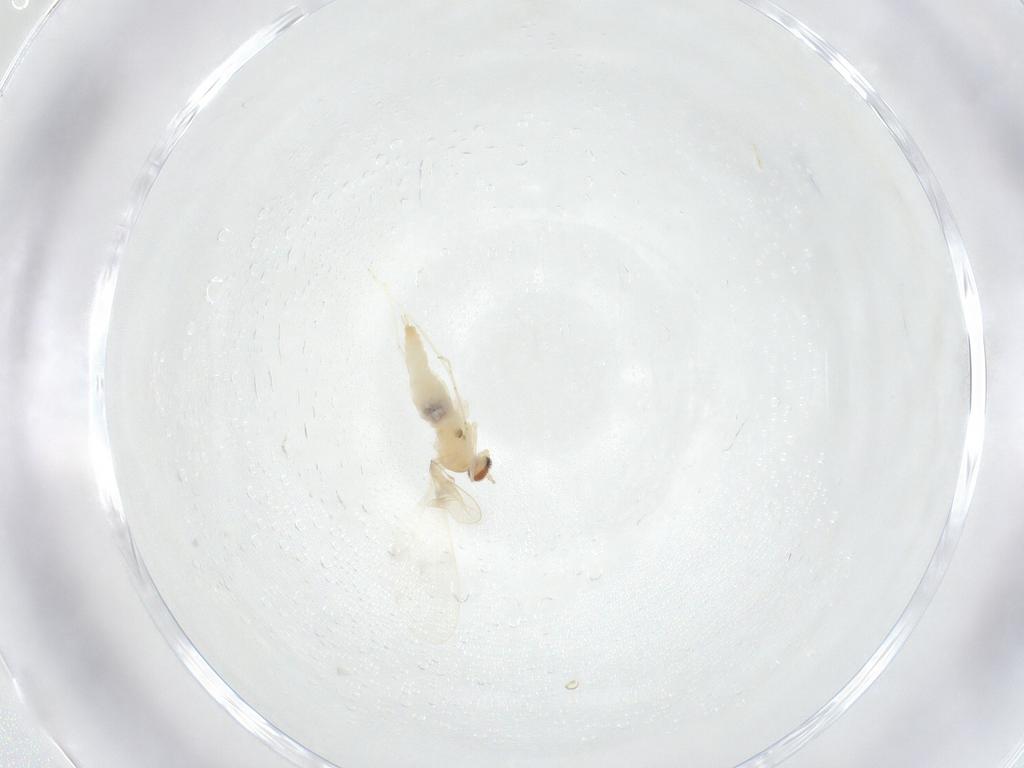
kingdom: Animalia
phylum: Arthropoda
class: Insecta
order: Diptera
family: Cecidomyiidae
